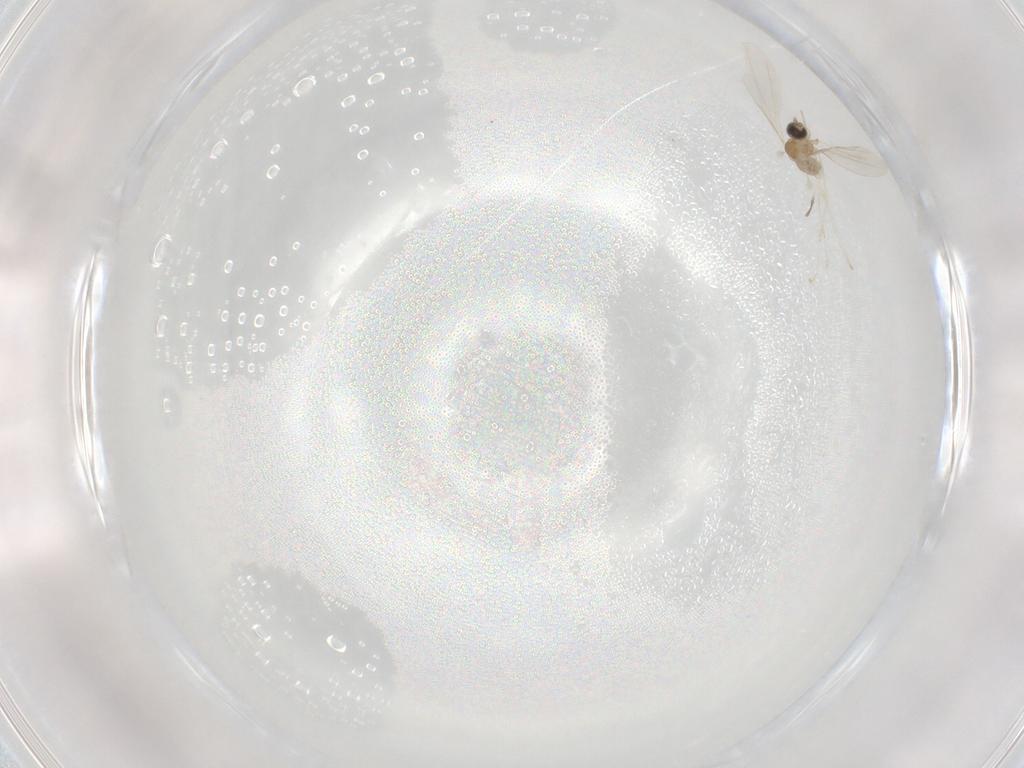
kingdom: Animalia
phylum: Arthropoda
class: Insecta
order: Diptera
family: Cecidomyiidae
